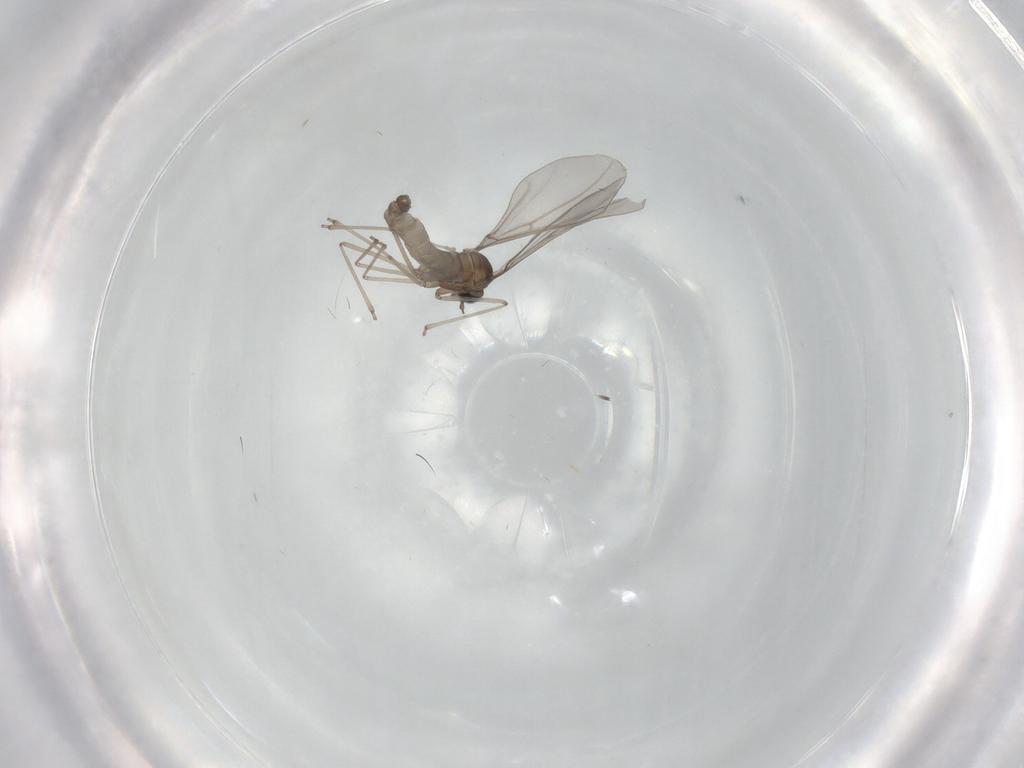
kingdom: Animalia
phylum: Arthropoda
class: Insecta
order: Diptera
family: Cecidomyiidae
